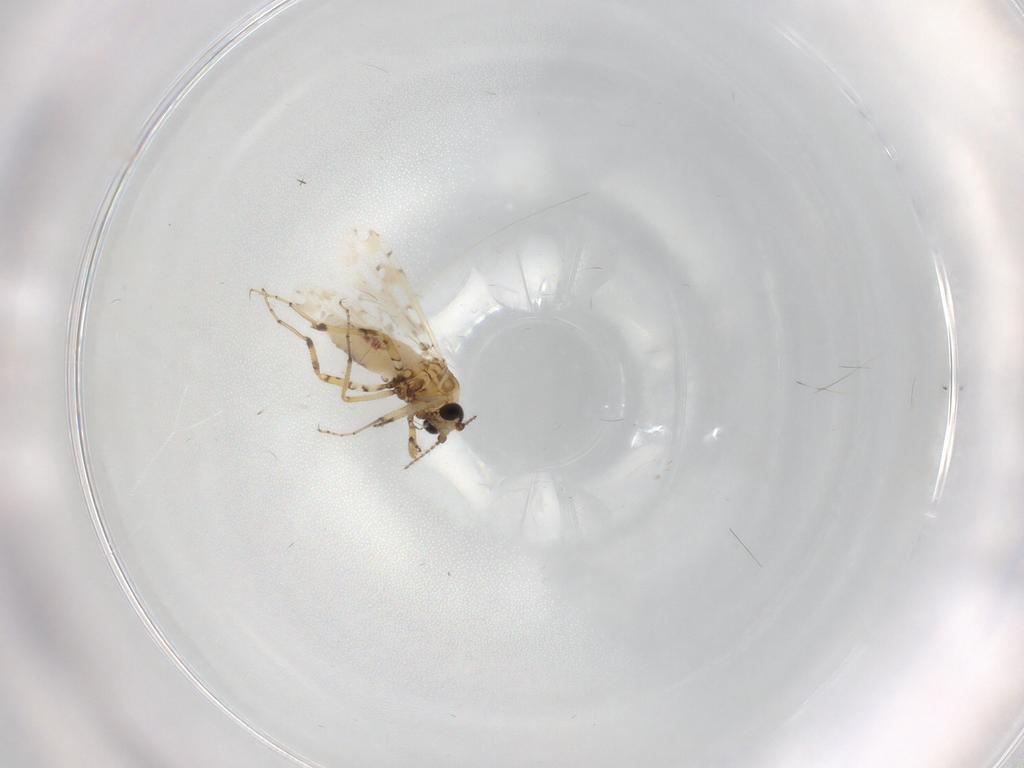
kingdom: Animalia
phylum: Arthropoda
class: Insecta
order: Diptera
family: Ceratopogonidae
